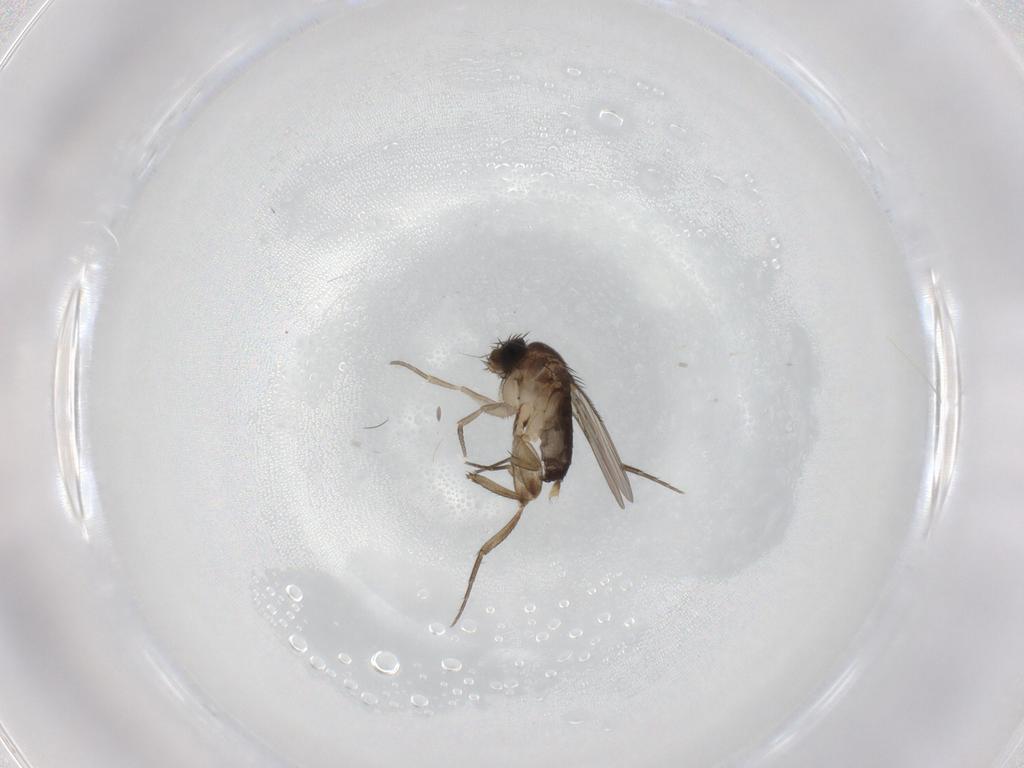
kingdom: Animalia
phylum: Arthropoda
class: Insecta
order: Diptera
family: Phoridae
